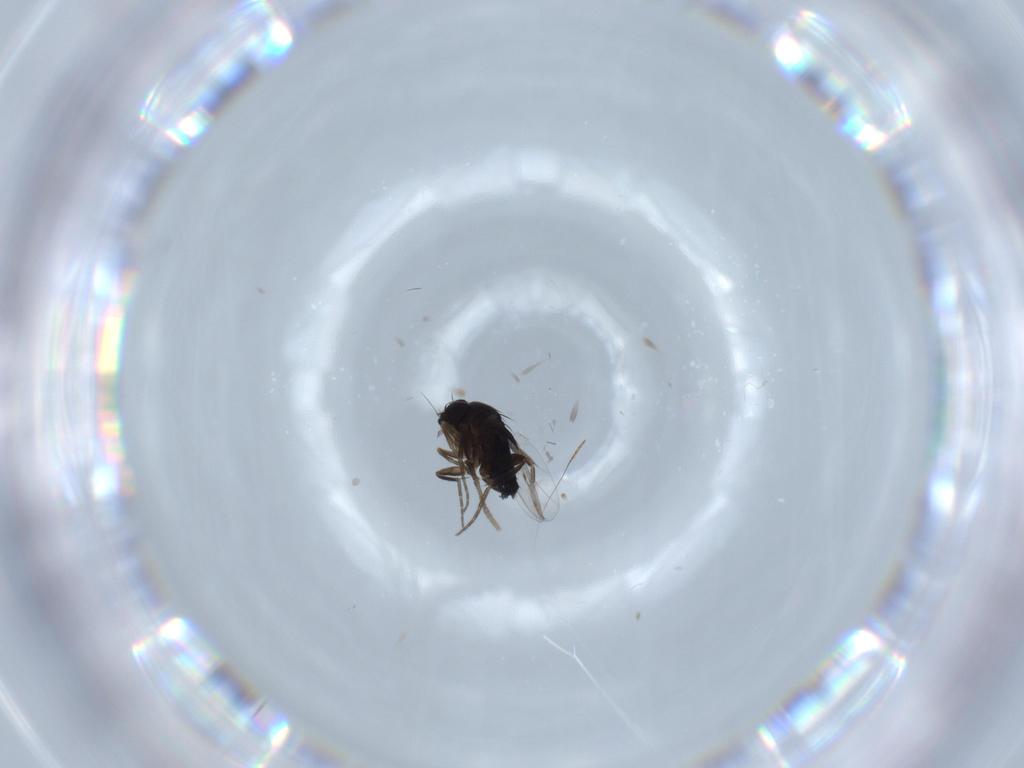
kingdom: Animalia
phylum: Arthropoda
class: Insecta
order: Diptera
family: Phoridae
